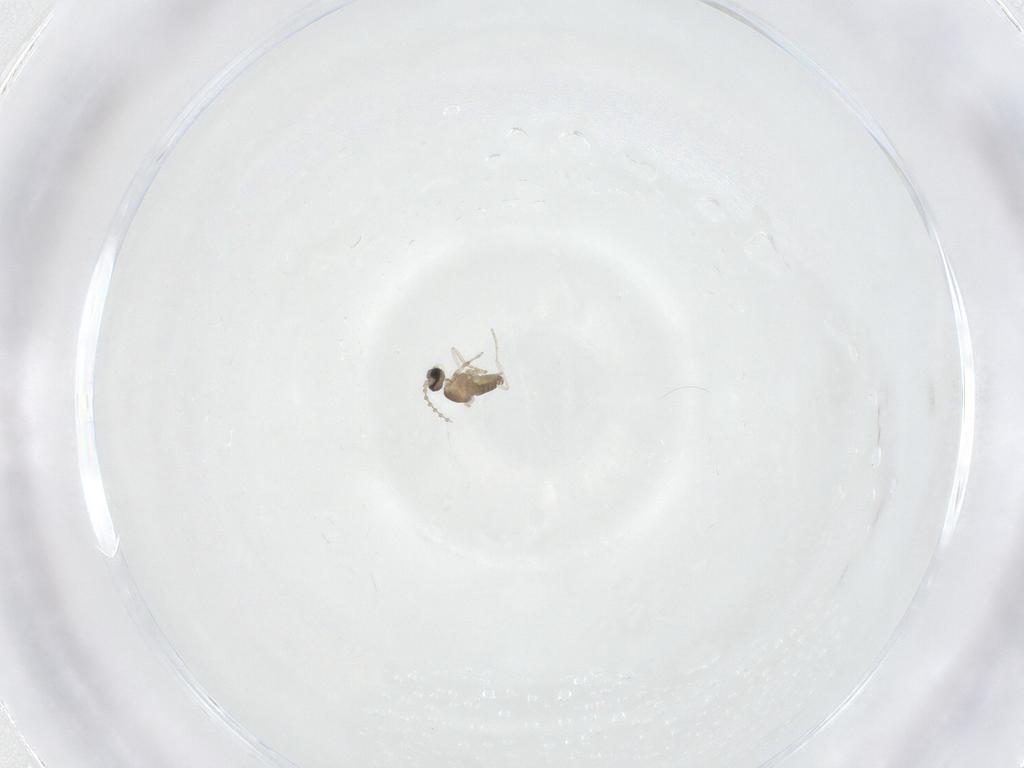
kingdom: Animalia
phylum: Arthropoda
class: Insecta
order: Diptera
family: Cecidomyiidae
